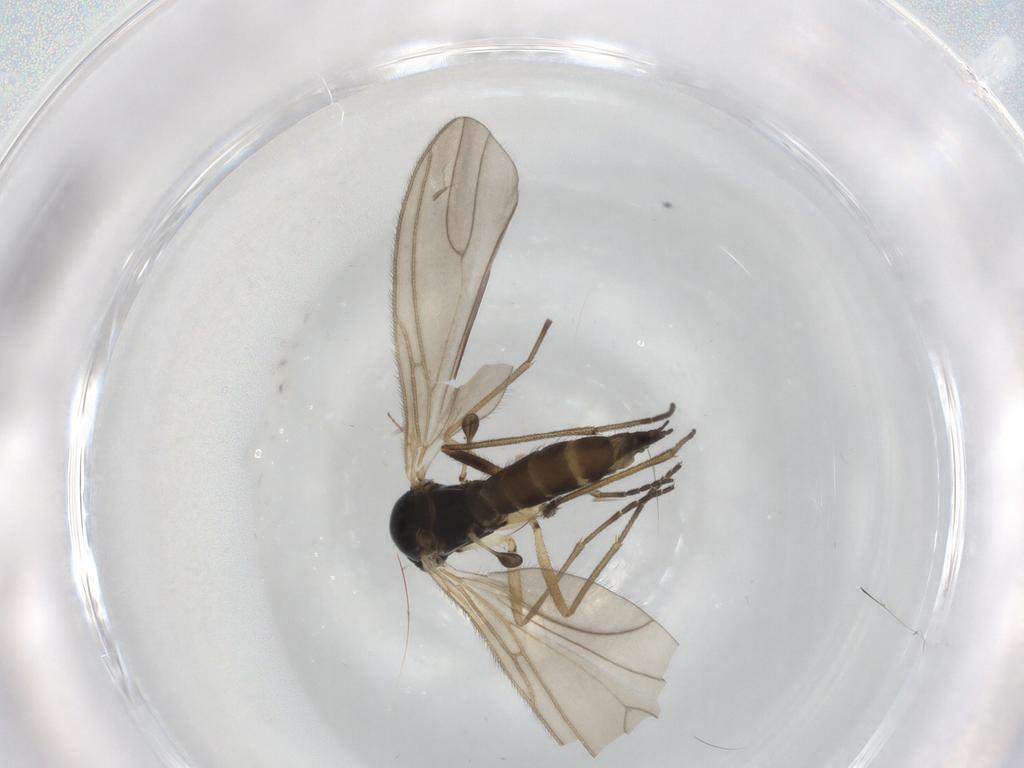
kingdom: Animalia
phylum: Arthropoda
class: Insecta
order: Diptera
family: Sciaridae
